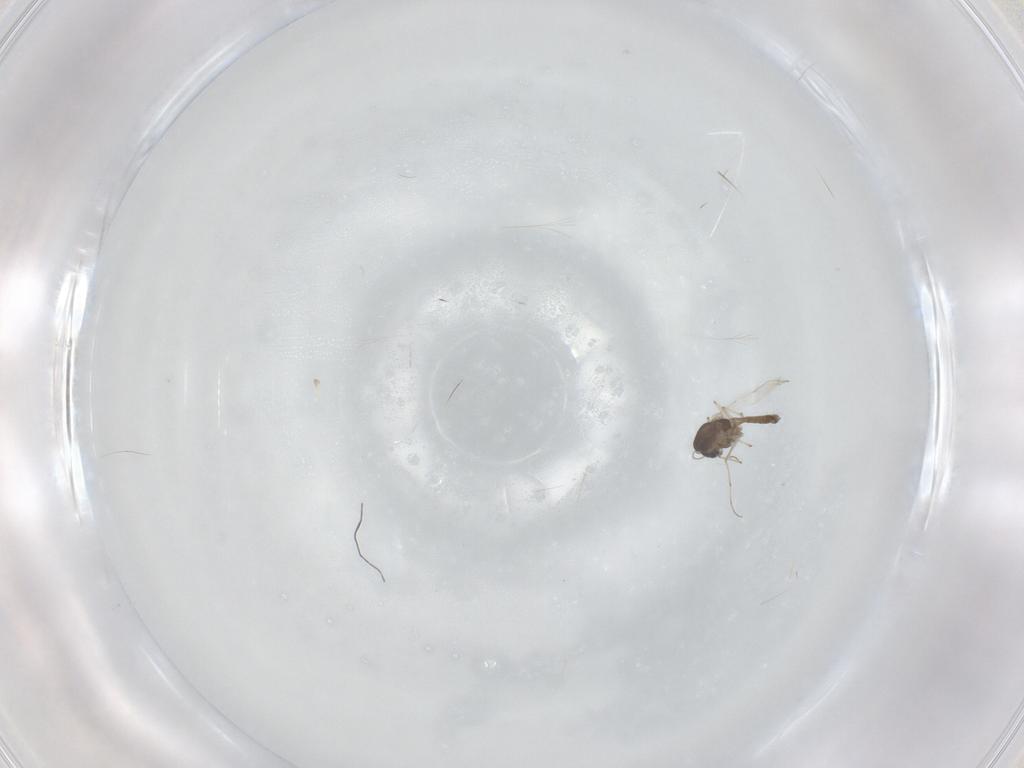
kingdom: Animalia
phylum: Arthropoda
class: Insecta
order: Diptera
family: Chironomidae
